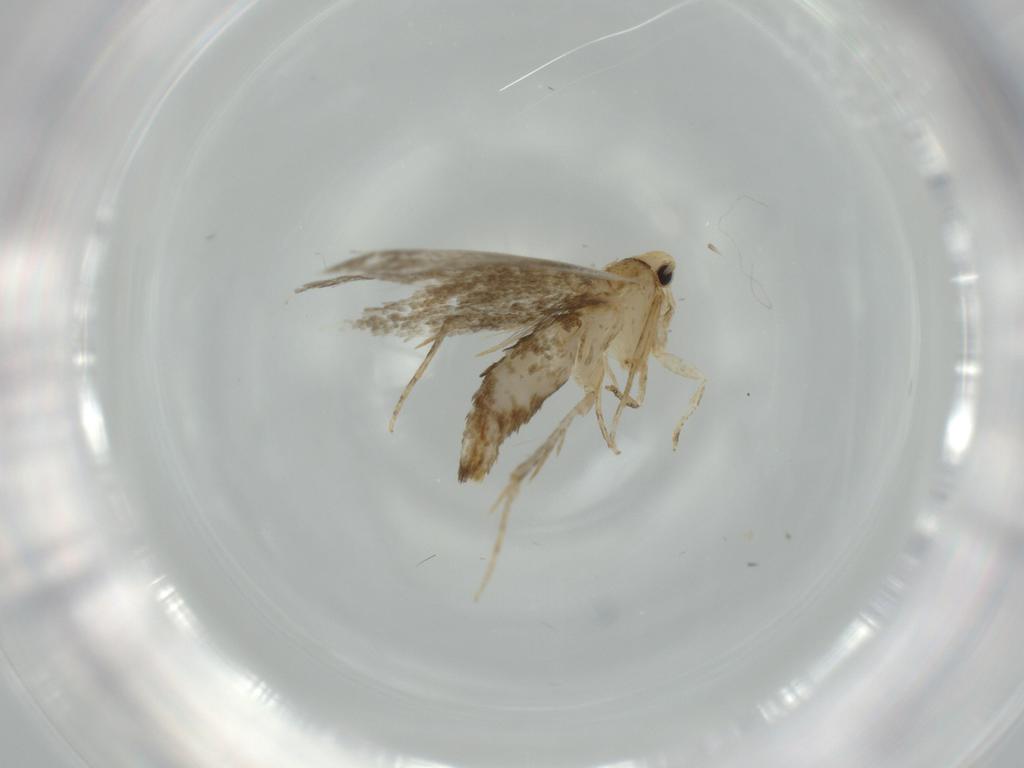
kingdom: Animalia
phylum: Arthropoda
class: Insecta
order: Lepidoptera
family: Tineidae
